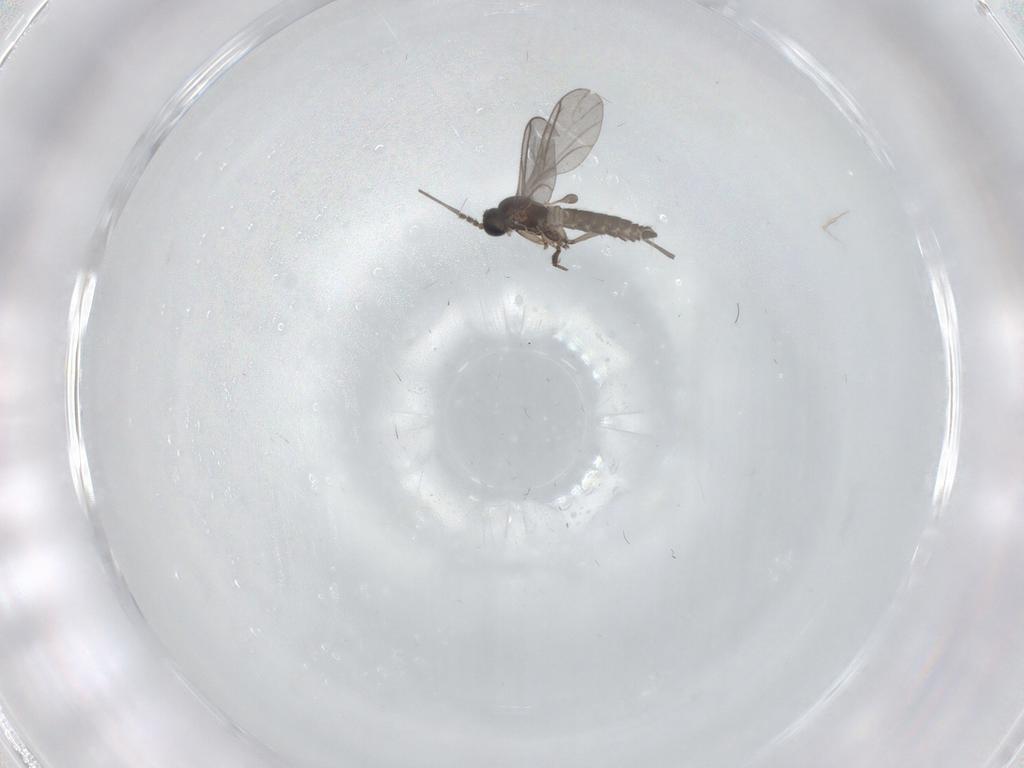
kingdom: Animalia
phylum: Arthropoda
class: Insecta
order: Diptera
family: Sciaridae
